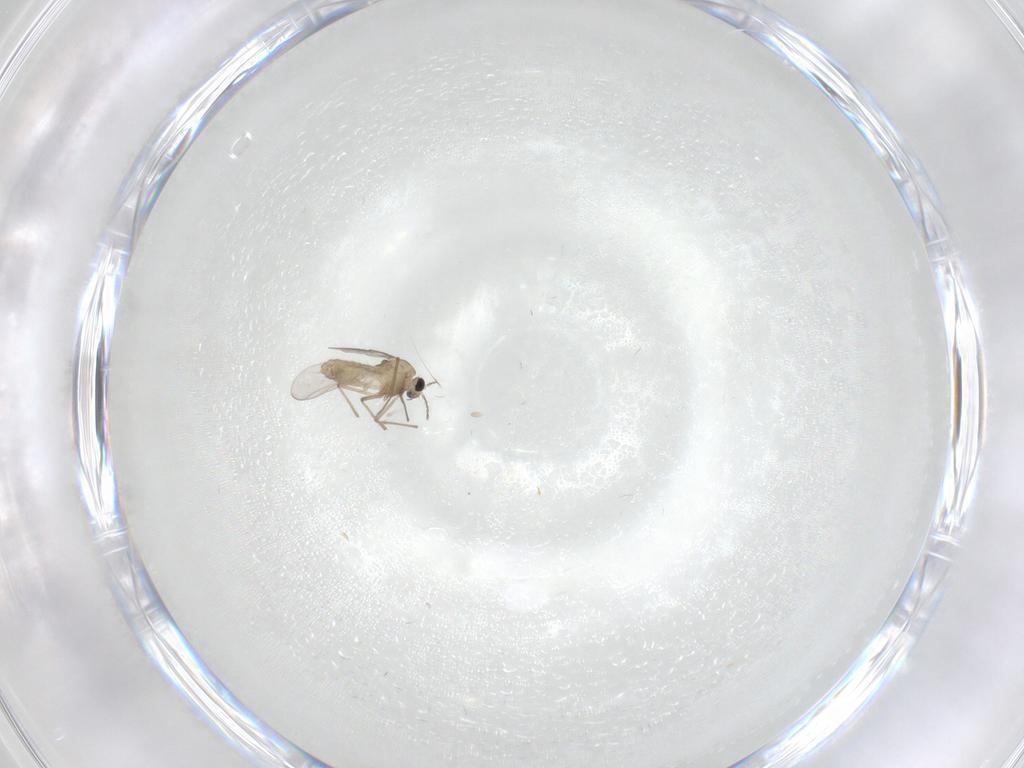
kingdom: Animalia
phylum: Arthropoda
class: Insecta
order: Diptera
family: Chironomidae
